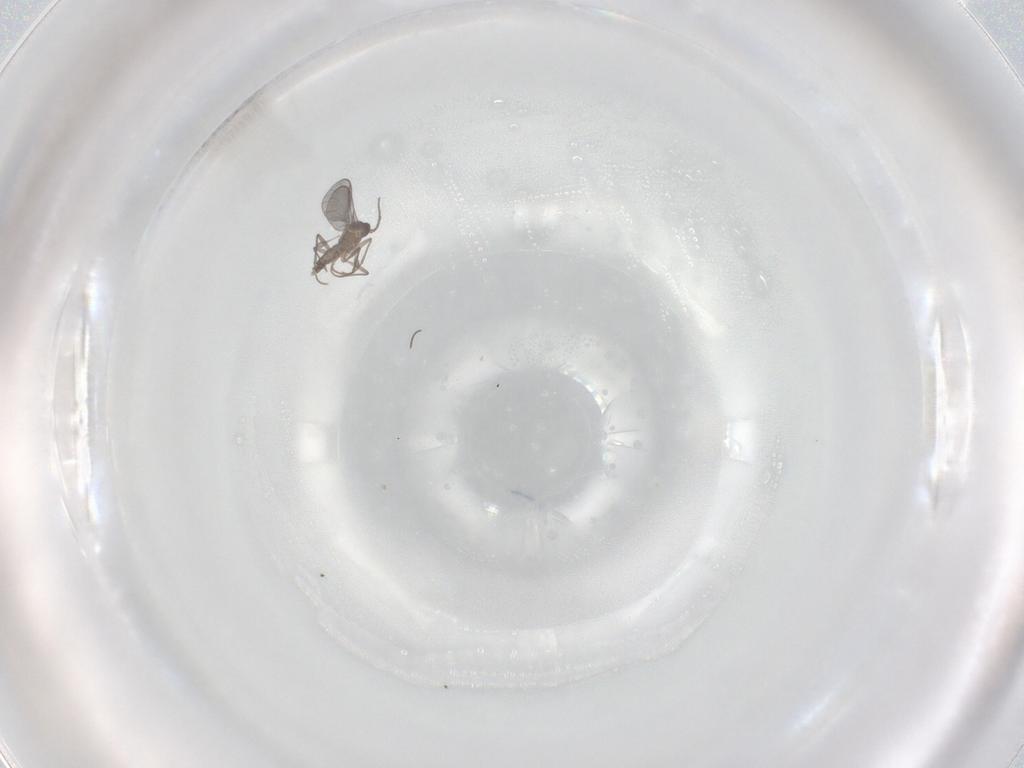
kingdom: Animalia
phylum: Arthropoda
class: Insecta
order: Diptera
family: Sciaridae
